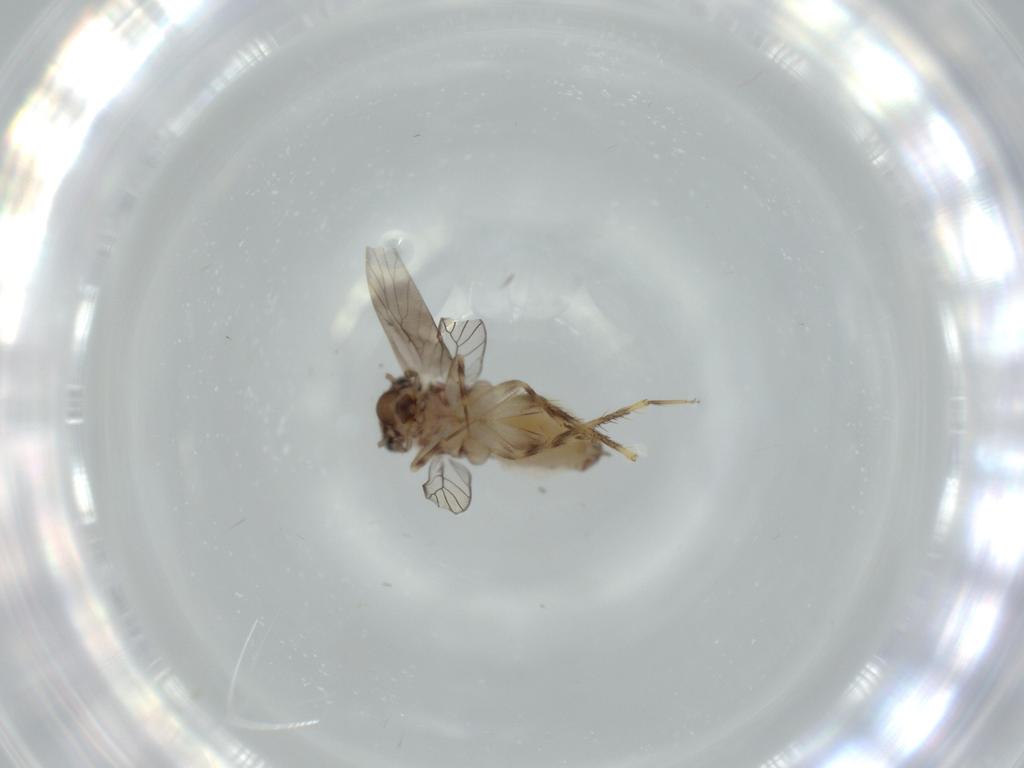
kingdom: Animalia
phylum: Arthropoda
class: Insecta
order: Psocodea
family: Lepidopsocidae
